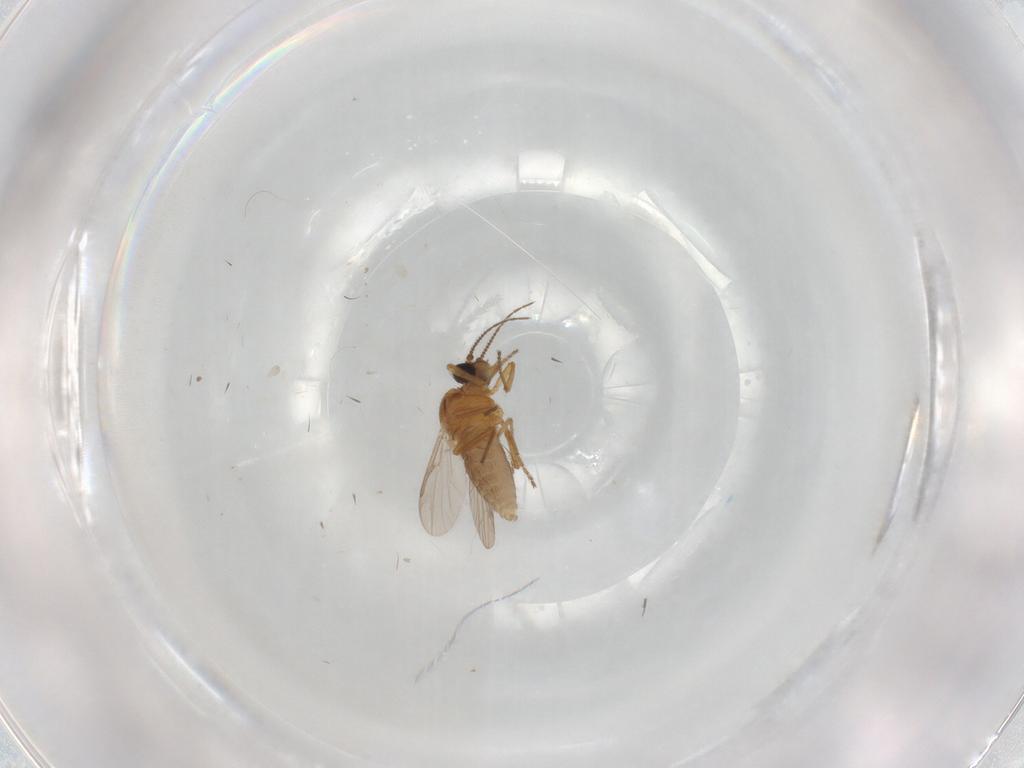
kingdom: Animalia
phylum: Arthropoda
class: Insecta
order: Diptera
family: Ceratopogonidae
